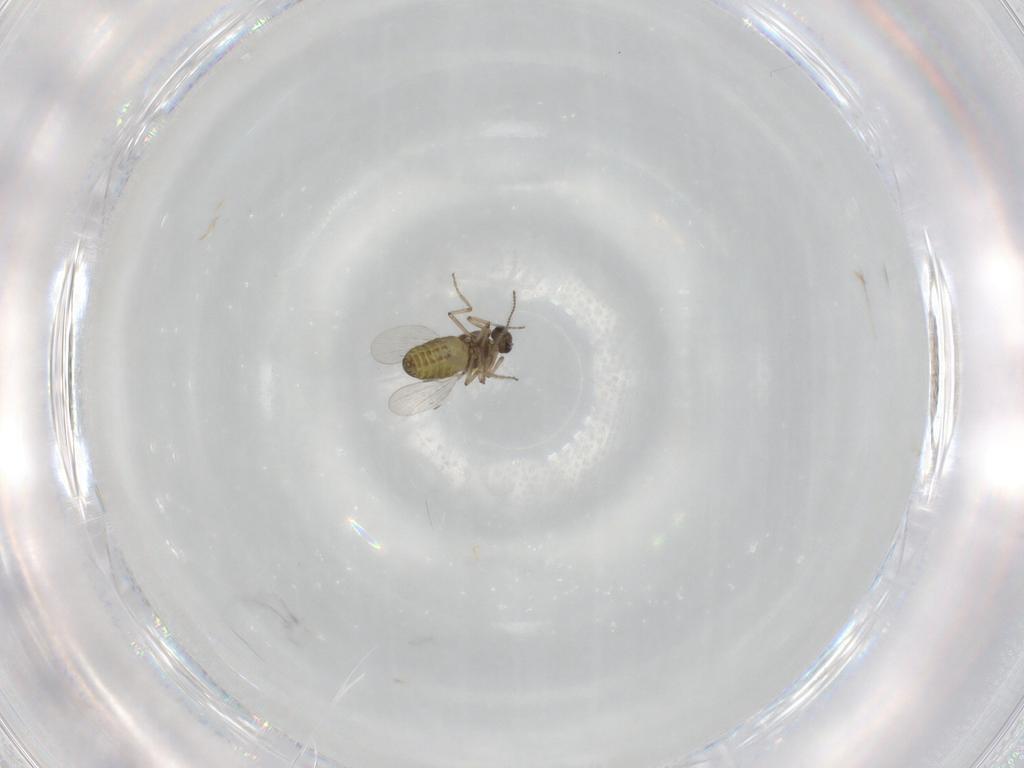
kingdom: Animalia
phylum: Arthropoda
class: Insecta
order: Diptera
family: Ceratopogonidae
